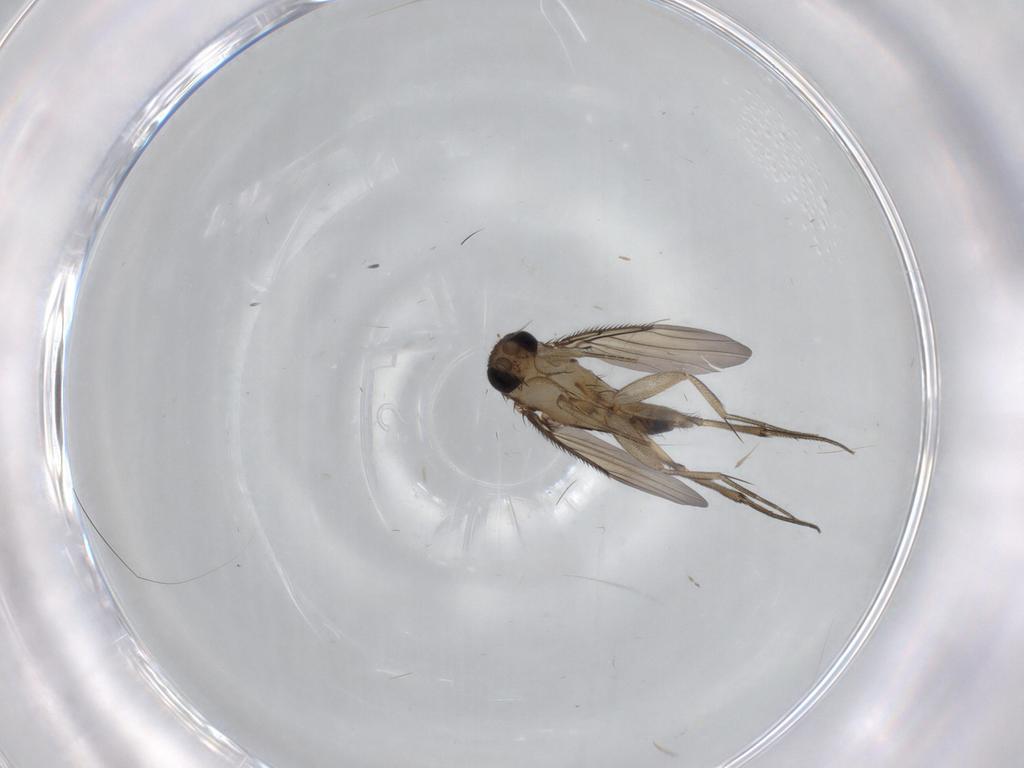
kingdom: Animalia
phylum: Arthropoda
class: Insecta
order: Diptera
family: Phoridae
